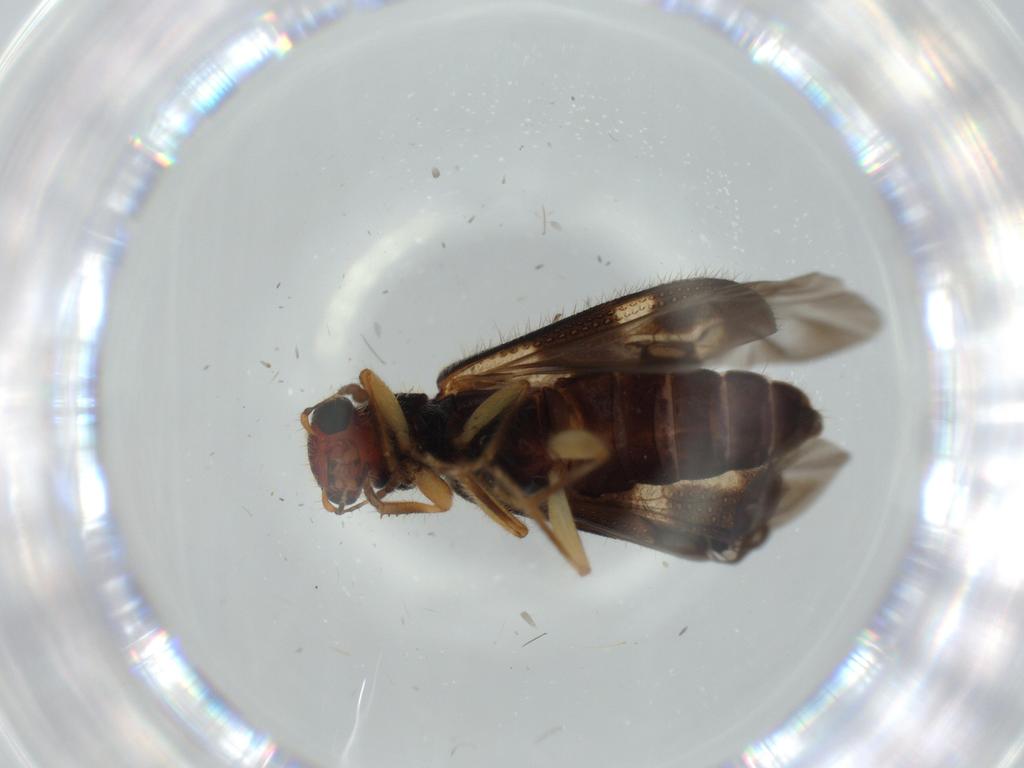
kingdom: Animalia
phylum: Arthropoda
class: Insecta
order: Coleoptera
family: Cleridae
